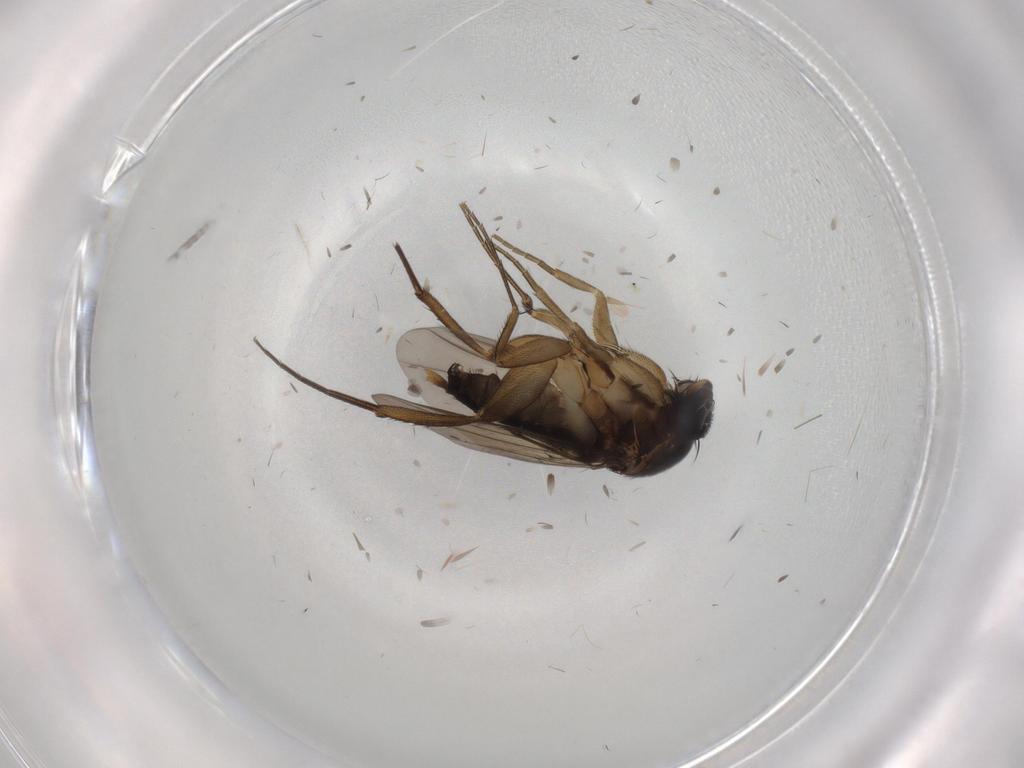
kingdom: Animalia
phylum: Arthropoda
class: Insecta
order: Diptera
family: Phoridae
